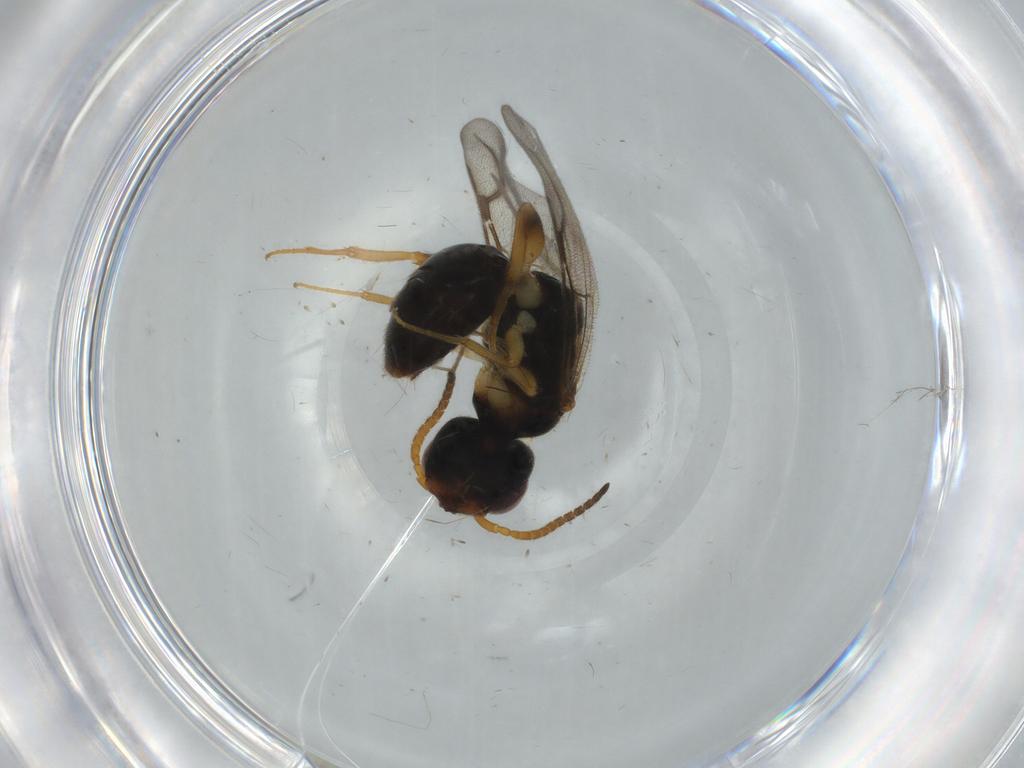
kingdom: Animalia
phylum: Arthropoda
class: Insecta
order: Hymenoptera
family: Bethylidae
